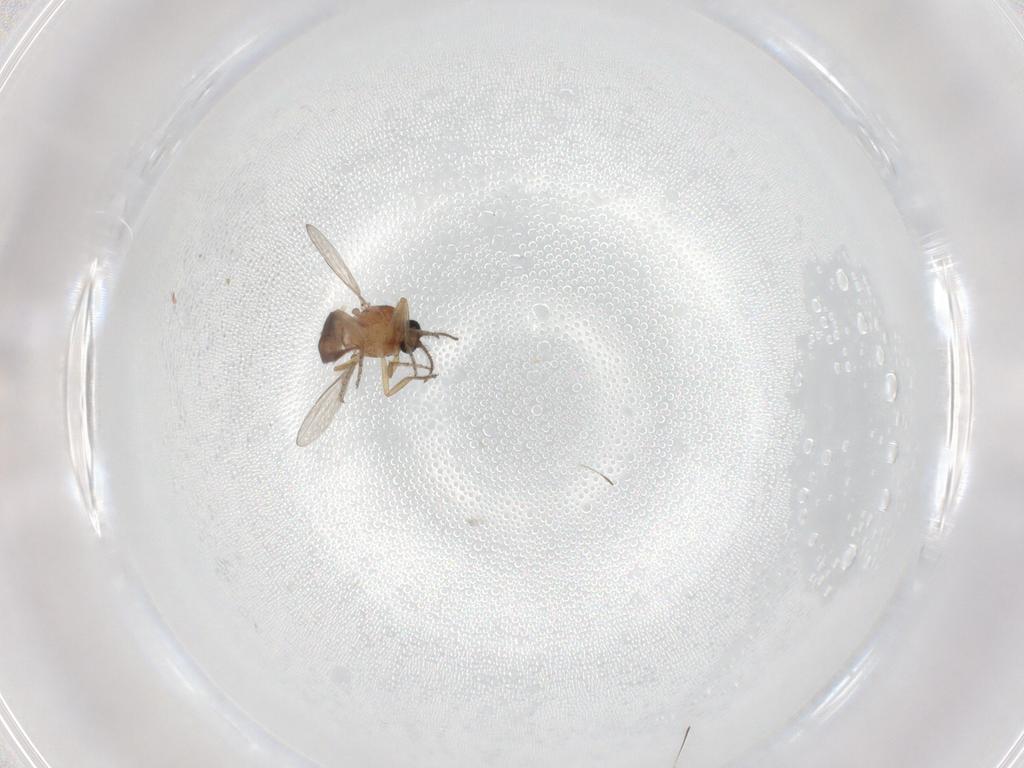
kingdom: Animalia
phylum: Arthropoda
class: Insecta
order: Diptera
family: Ceratopogonidae
